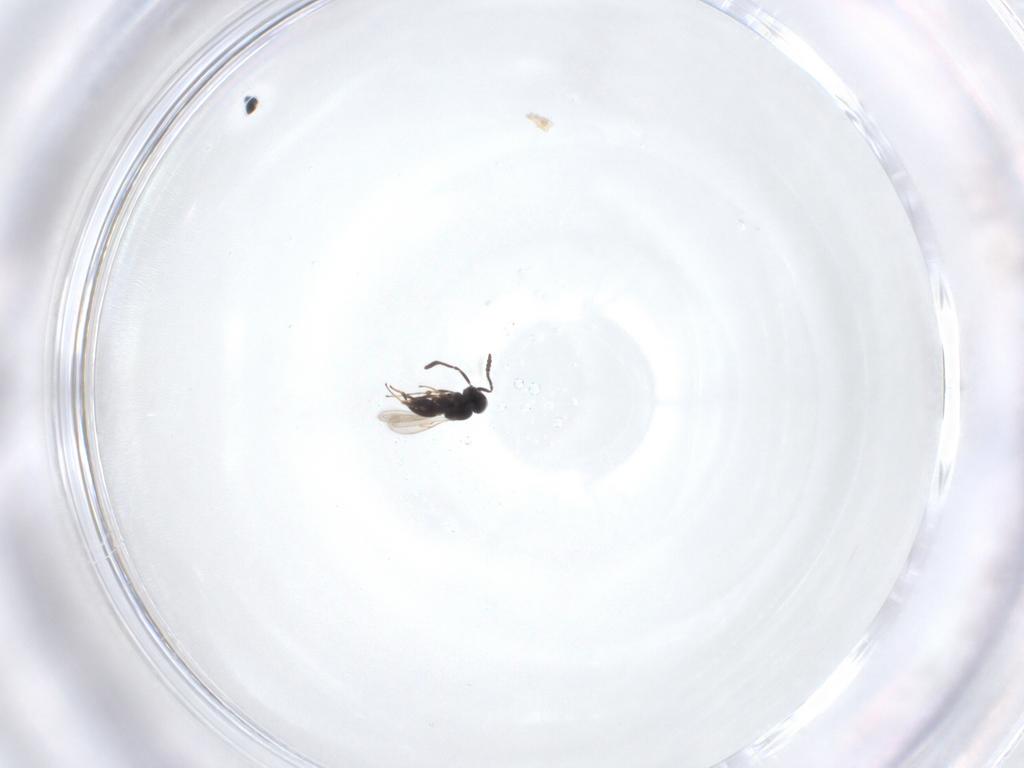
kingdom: Animalia
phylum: Arthropoda
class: Insecta
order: Hymenoptera
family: Scelionidae
